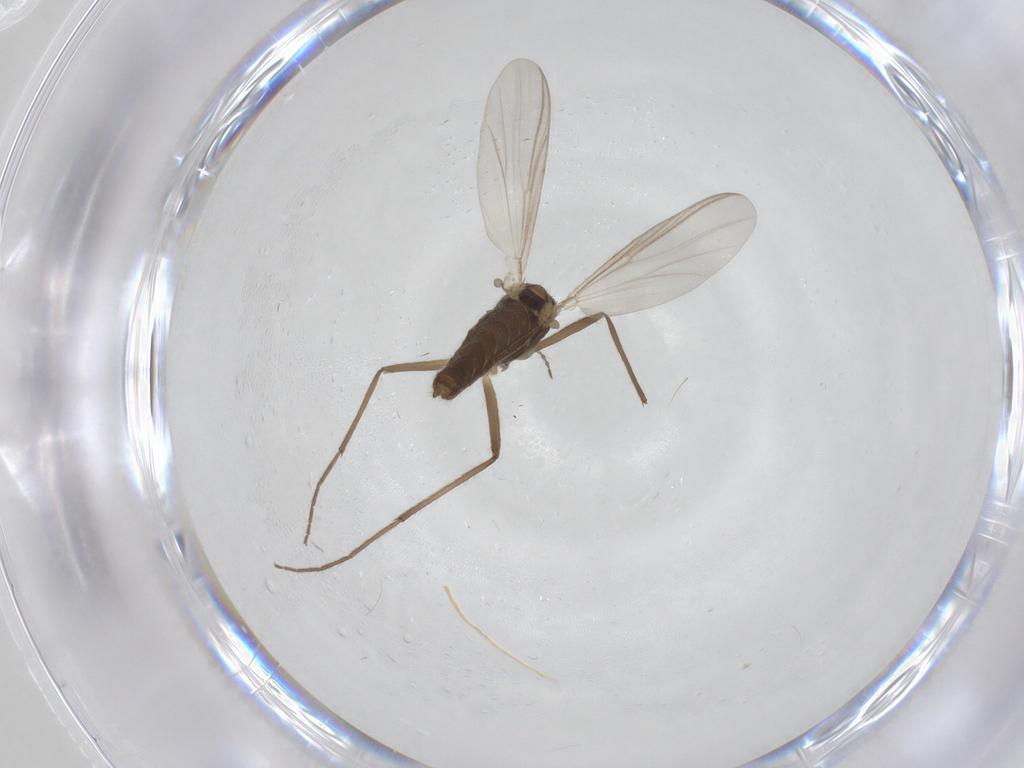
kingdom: Animalia
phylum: Arthropoda
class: Insecta
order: Diptera
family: Chironomidae
